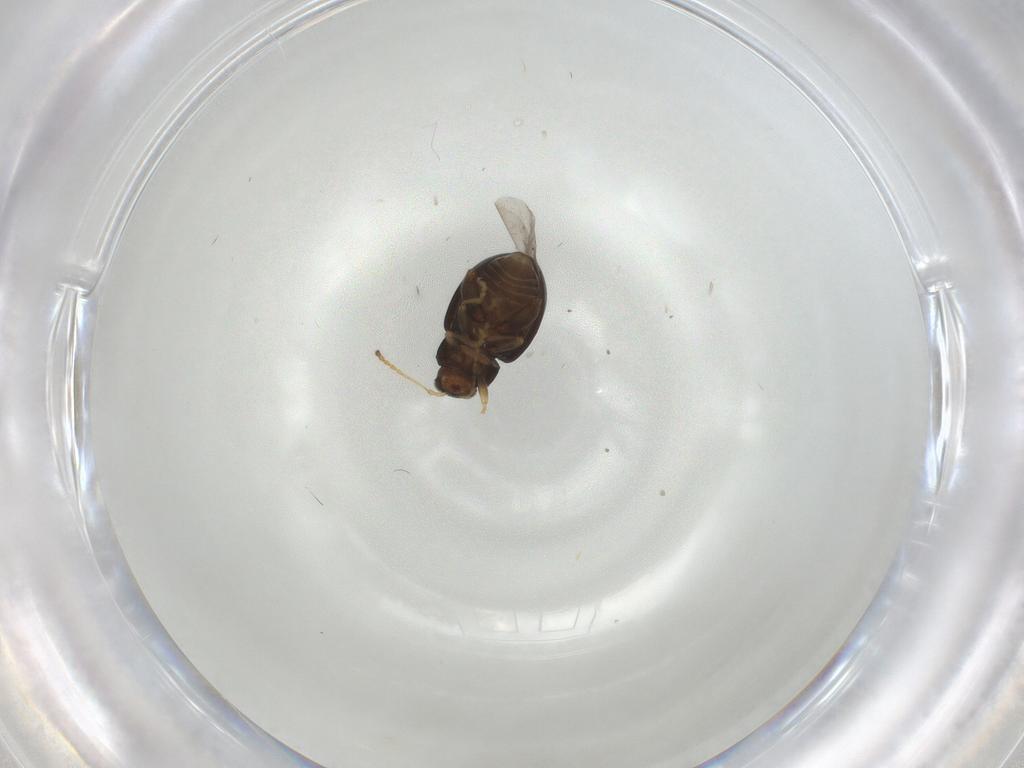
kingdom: Animalia
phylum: Arthropoda
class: Insecta
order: Coleoptera
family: Chrysomelidae
